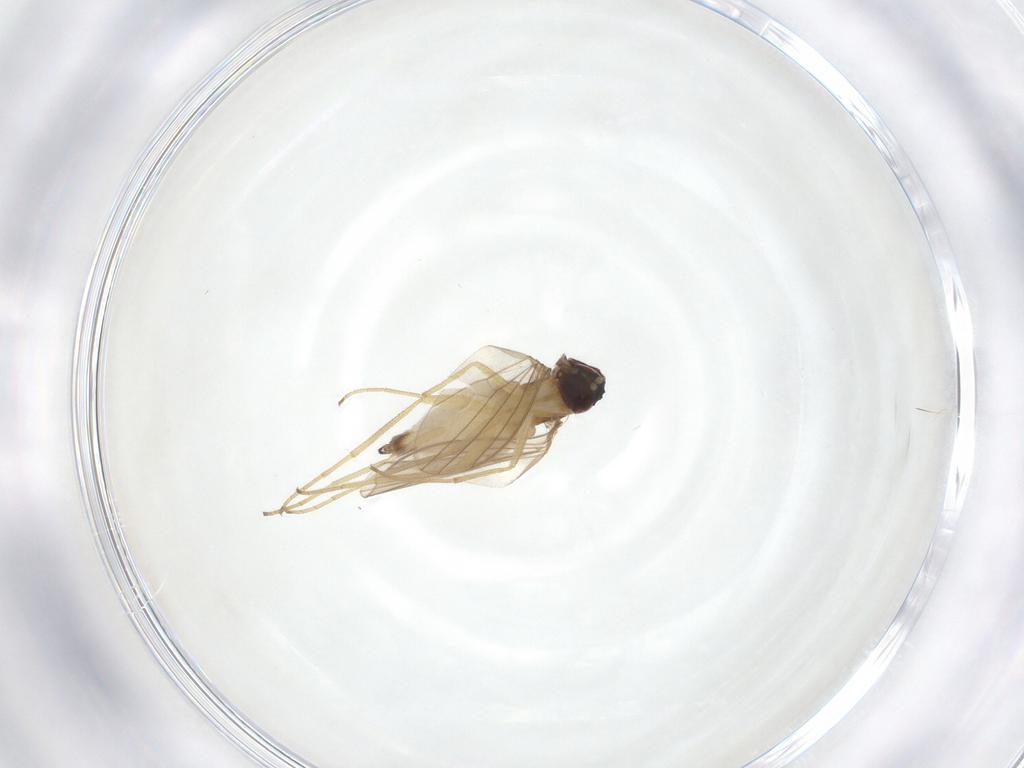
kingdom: Animalia
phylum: Arthropoda
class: Insecta
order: Diptera
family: Dolichopodidae
